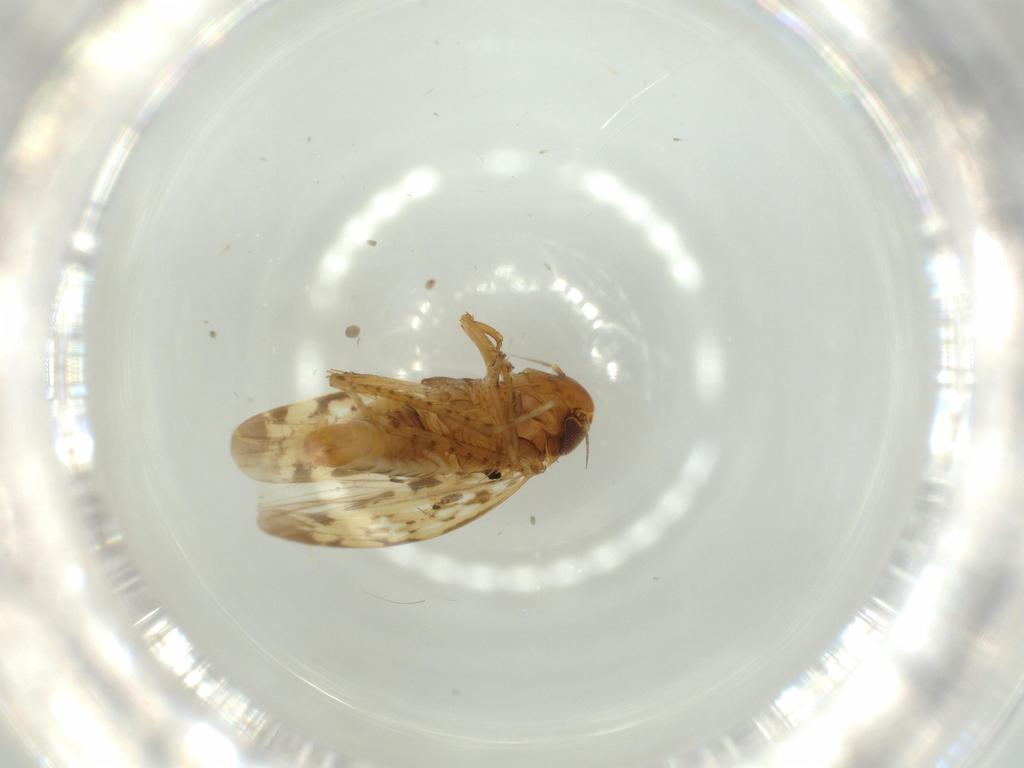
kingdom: Animalia
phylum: Arthropoda
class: Insecta
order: Hemiptera
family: Cicadellidae
